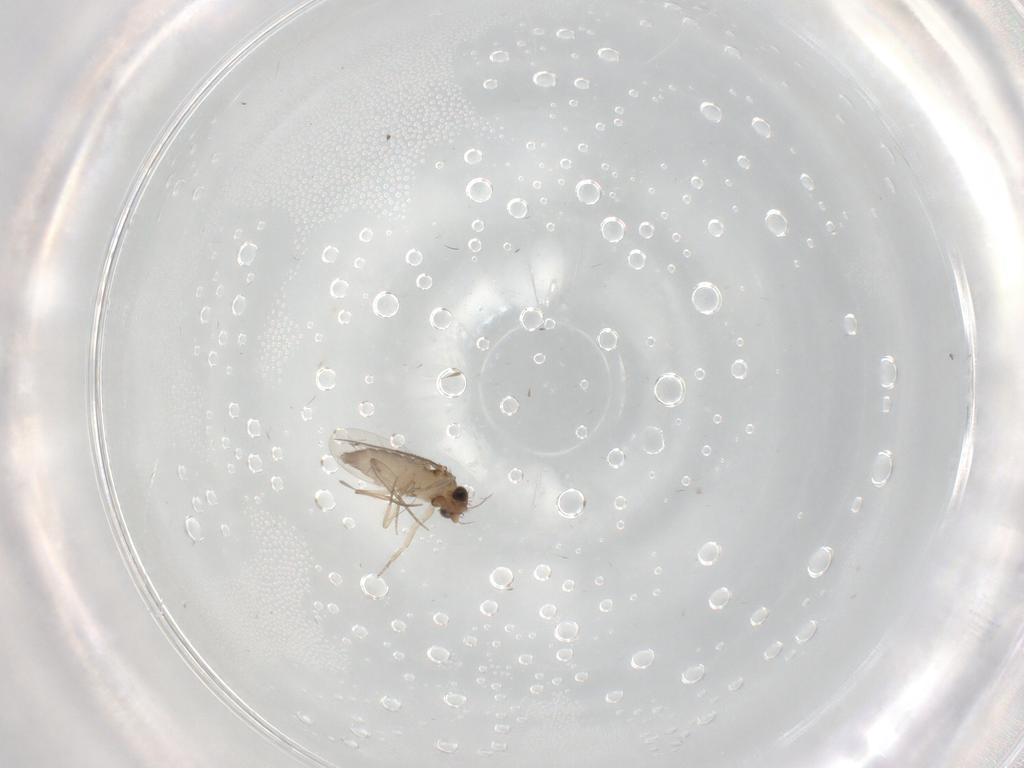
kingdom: Animalia
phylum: Arthropoda
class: Insecta
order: Diptera
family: Phoridae
